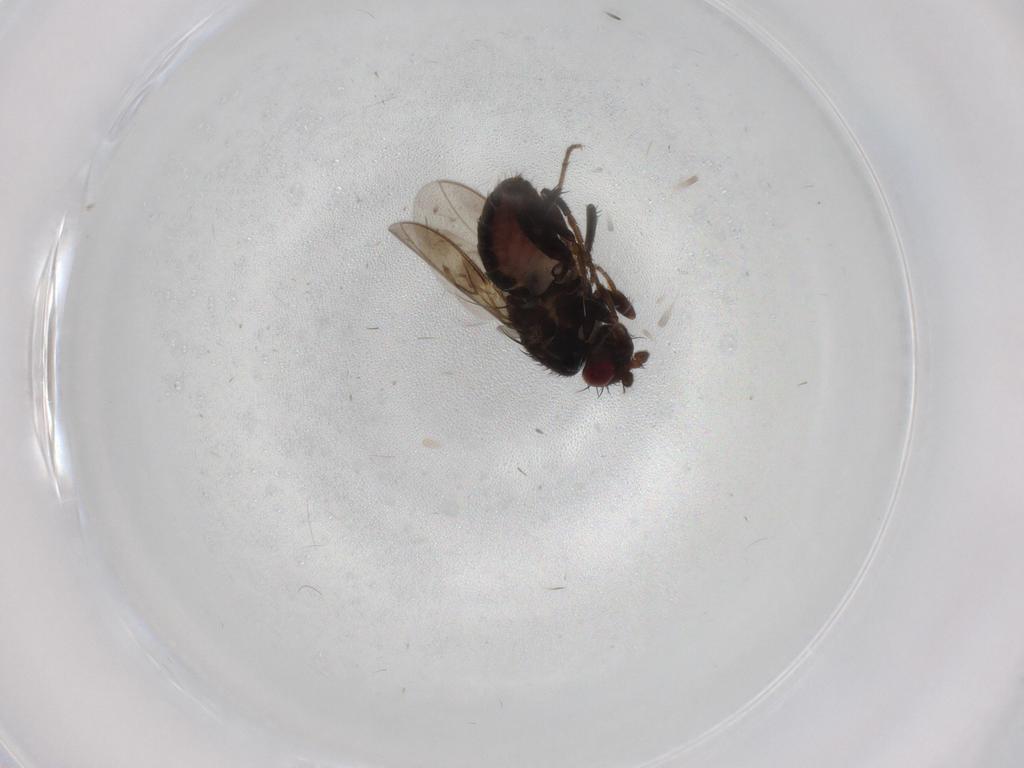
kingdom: Animalia
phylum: Arthropoda
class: Insecta
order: Diptera
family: Sphaeroceridae
